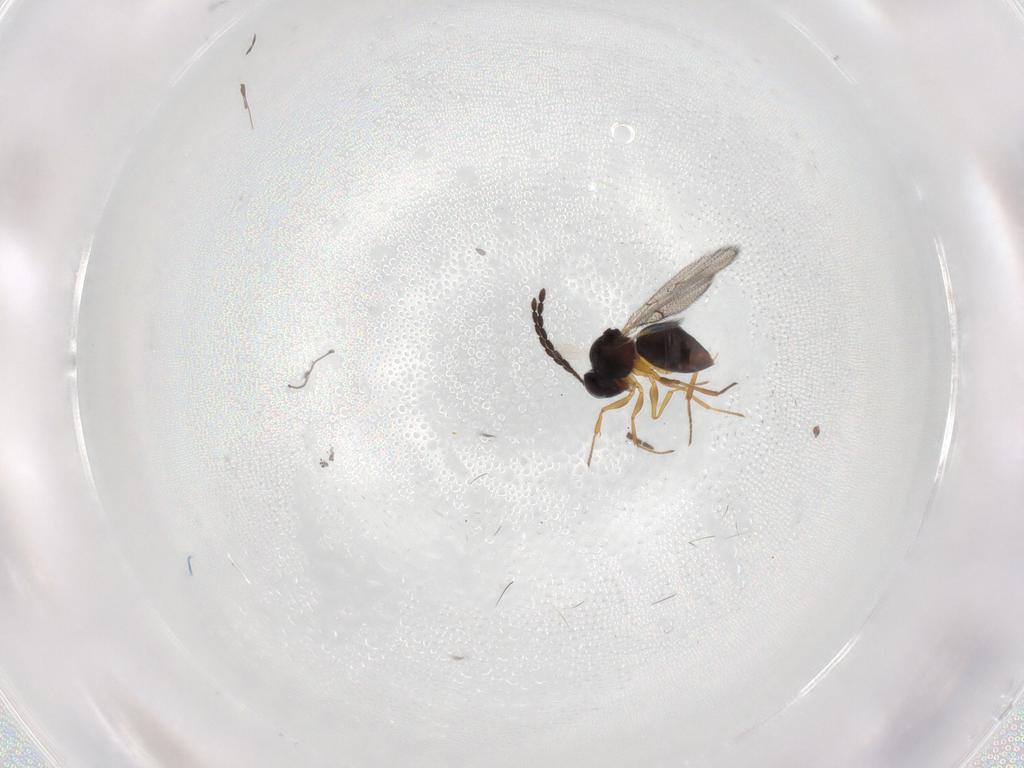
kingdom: Animalia
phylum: Arthropoda
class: Insecta
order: Hymenoptera
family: Figitidae
